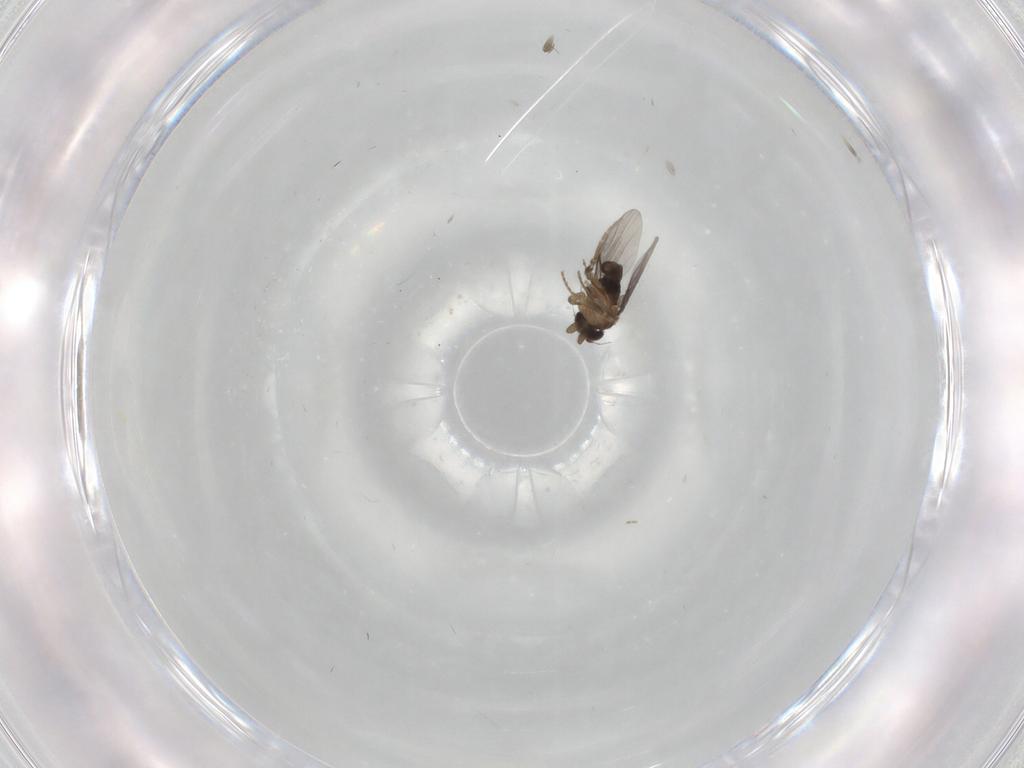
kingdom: Animalia
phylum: Arthropoda
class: Insecta
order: Diptera
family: Cecidomyiidae
